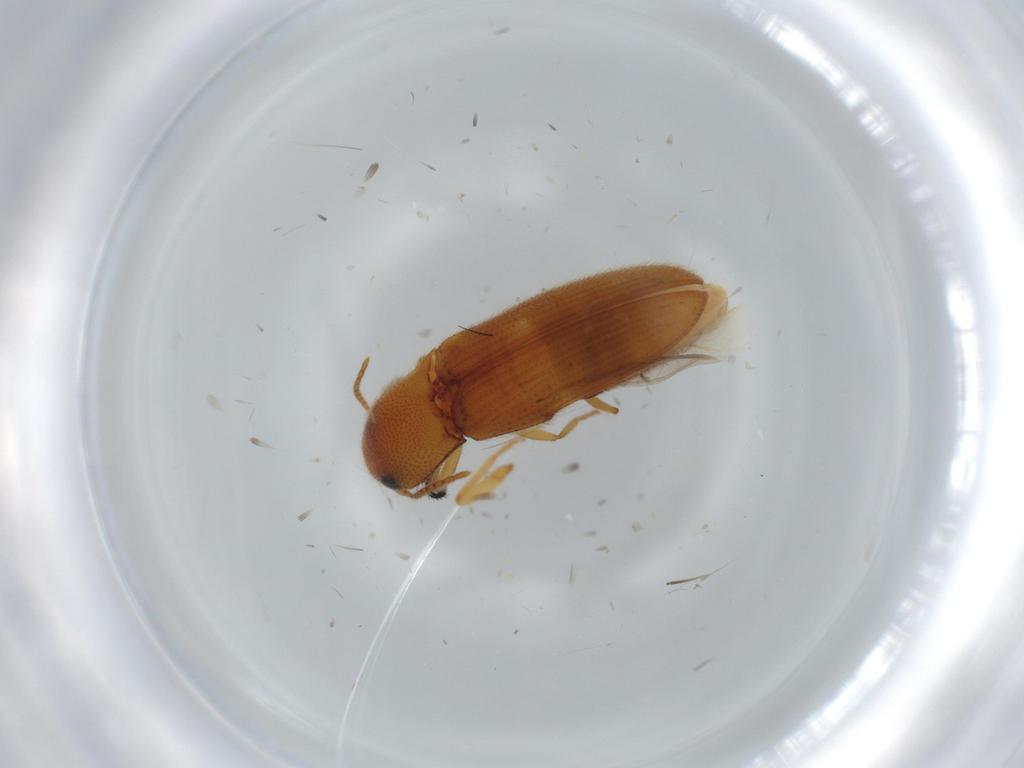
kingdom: Animalia
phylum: Arthropoda
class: Insecta
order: Coleoptera
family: Elateridae
